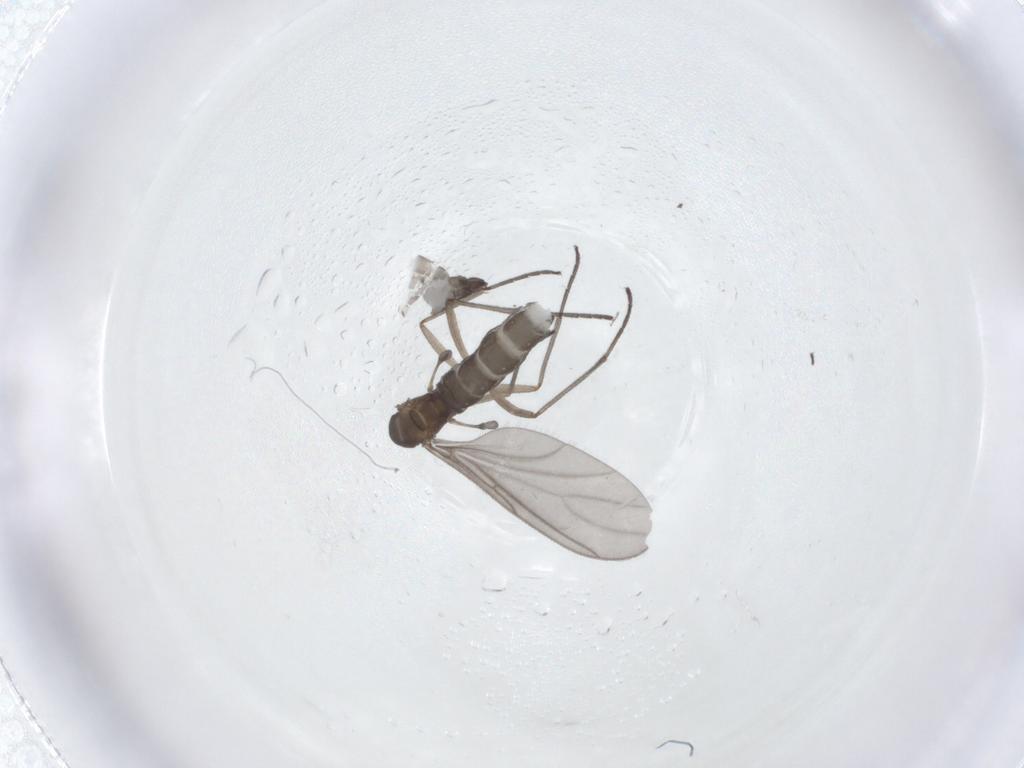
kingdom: Animalia
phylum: Arthropoda
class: Insecta
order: Diptera
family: Sciaridae
